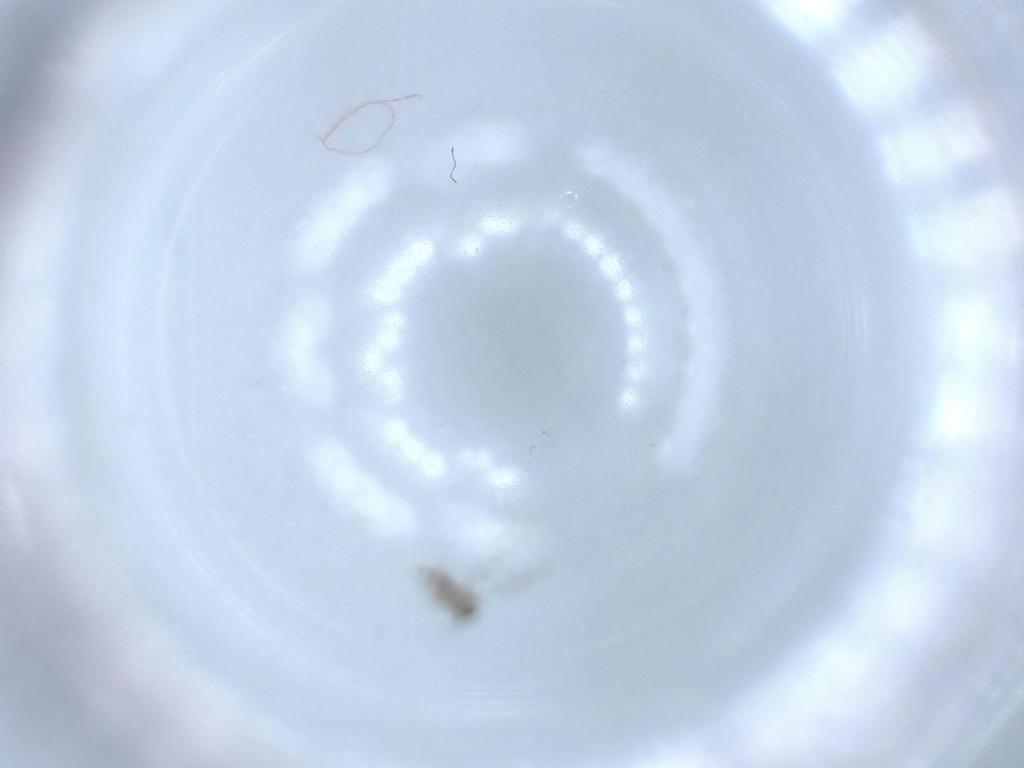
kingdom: Animalia
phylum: Arthropoda
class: Insecta
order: Diptera
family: Cecidomyiidae
